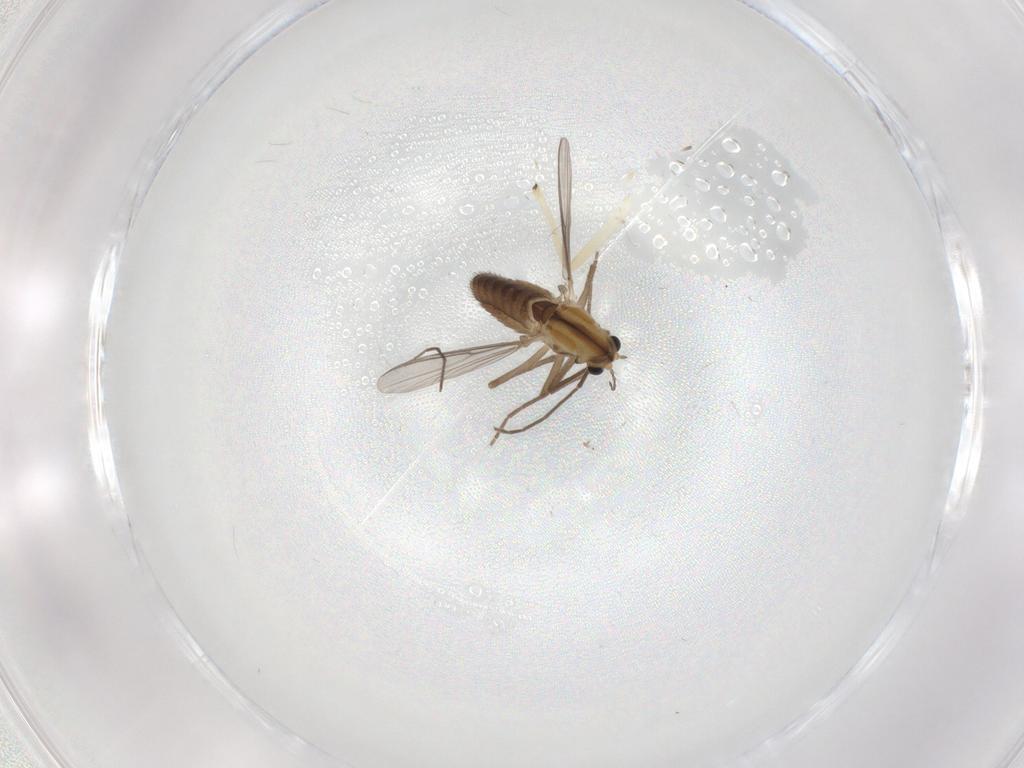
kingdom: Animalia
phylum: Arthropoda
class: Insecta
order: Diptera
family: Chironomidae
